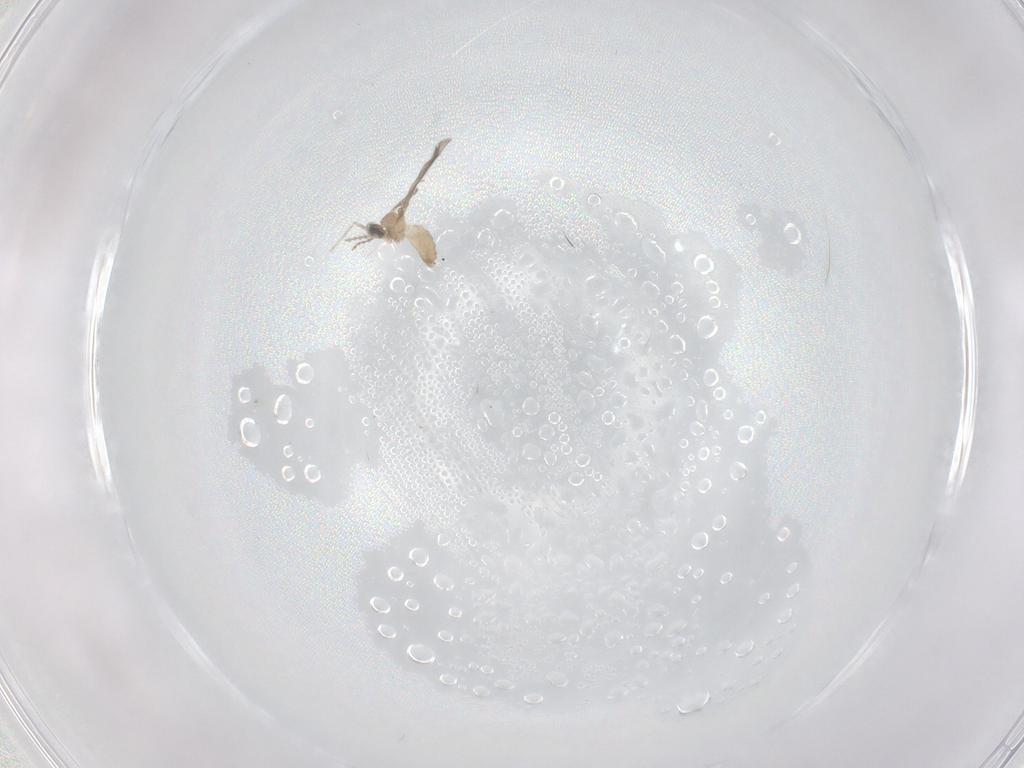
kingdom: Animalia
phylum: Arthropoda
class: Insecta
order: Diptera
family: Cecidomyiidae
